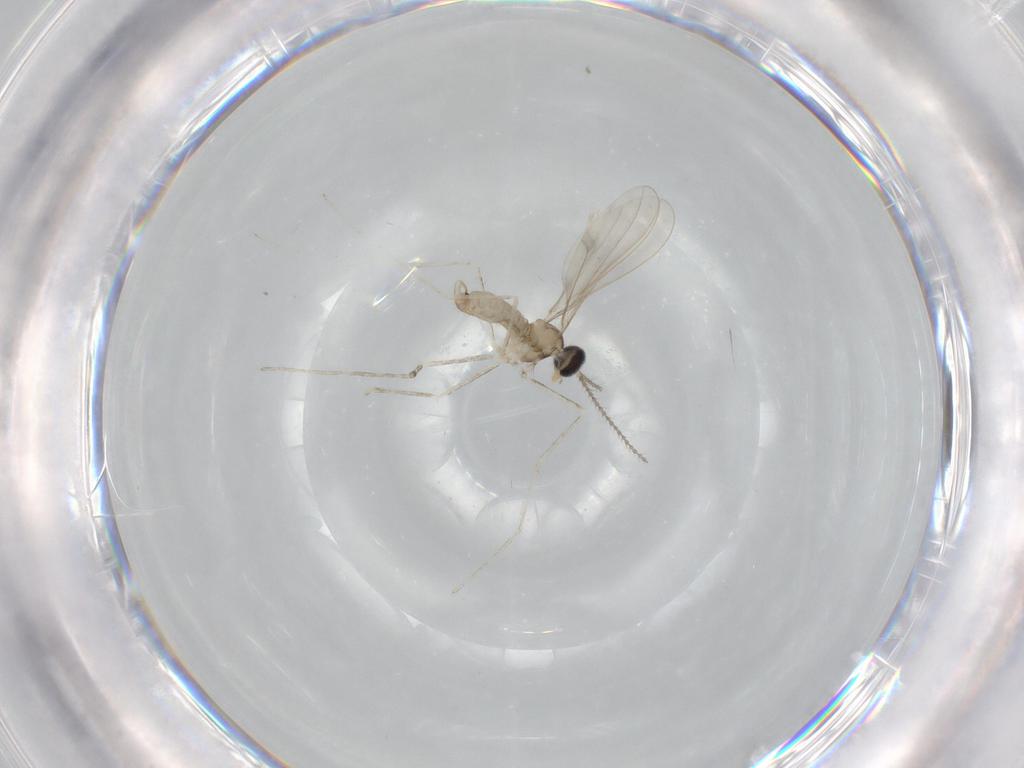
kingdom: Animalia
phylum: Arthropoda
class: Insecta
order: Diptera
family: Cecidomyiidae
